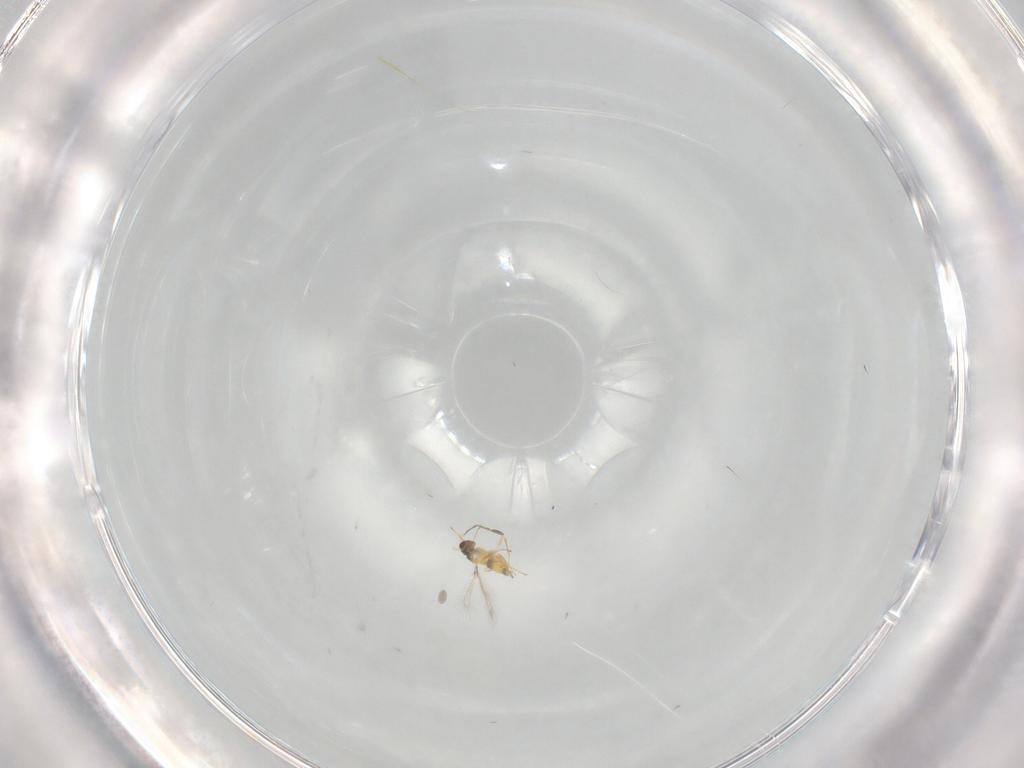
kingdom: Animalia
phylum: Arthropoda
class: Insecta
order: Hymenoptera
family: Mymaridae
